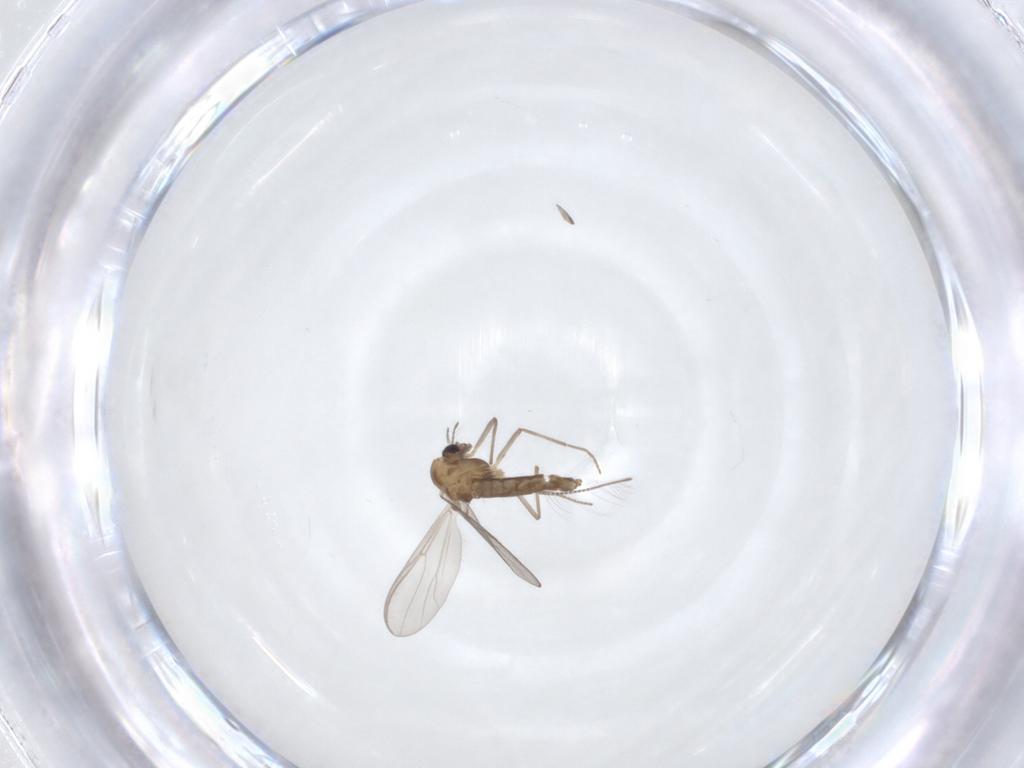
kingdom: Animalia
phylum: Arthropoda
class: Insecta
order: Diptera
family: Chironomidae
